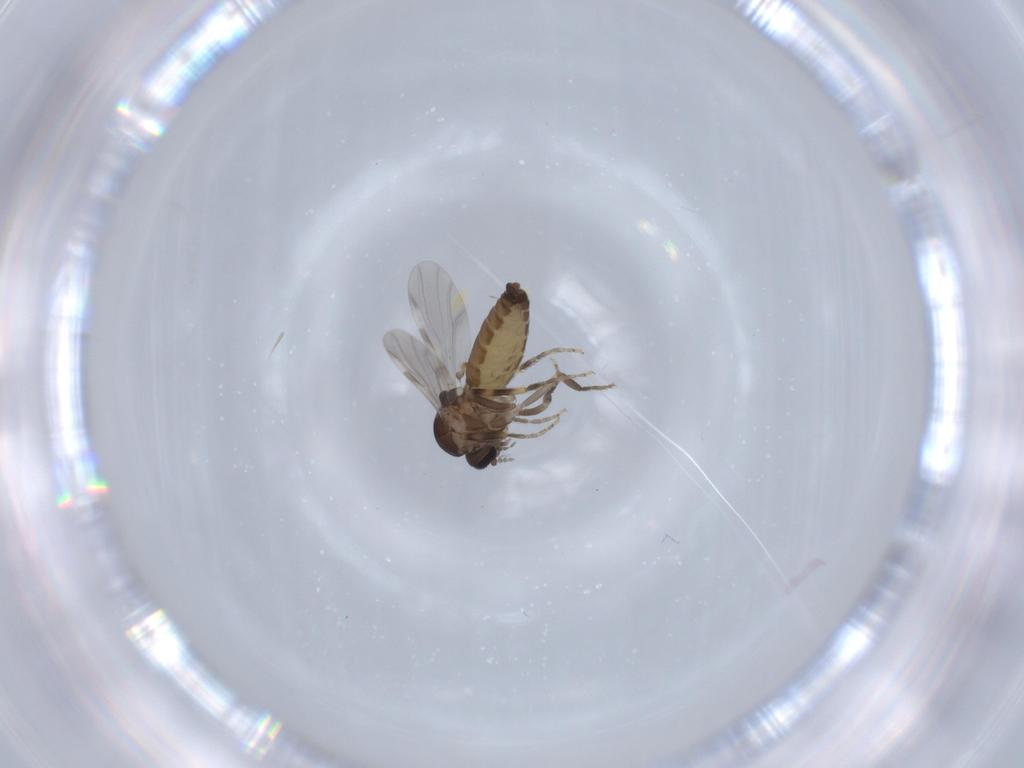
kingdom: Animalia
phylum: Arthropoda
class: Insecta
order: Diptera
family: Ceratopogonidae
